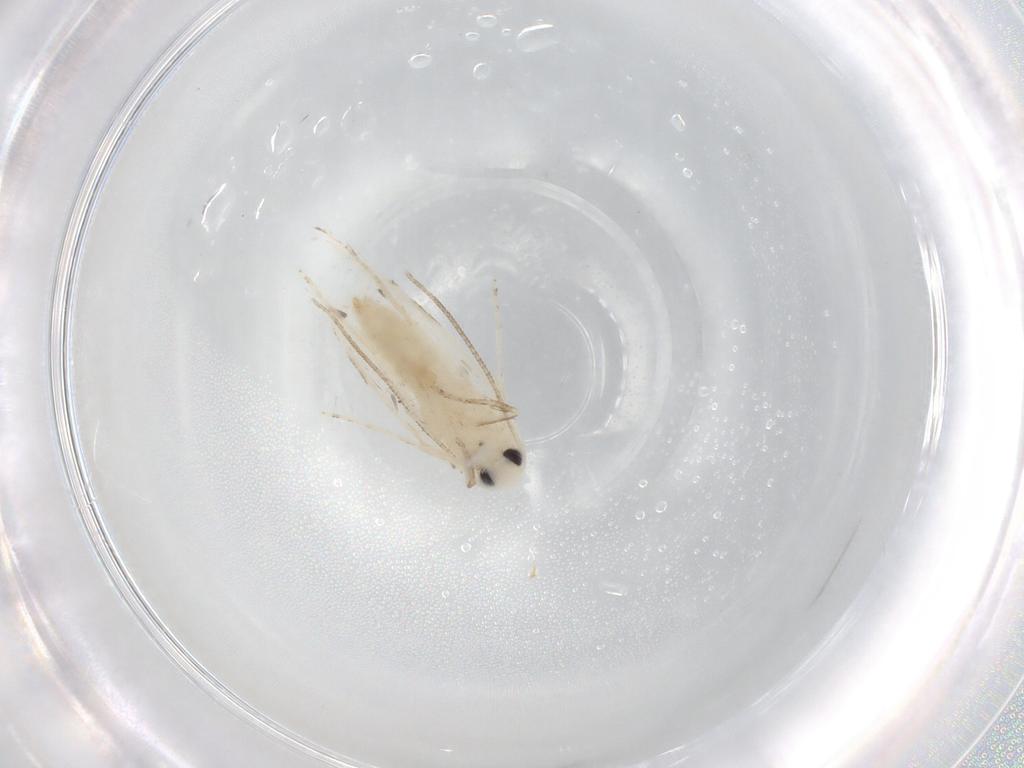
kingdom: Animalia
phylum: Arthropoda
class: Insecta
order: Lepidoptera
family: Lyonetiidae
